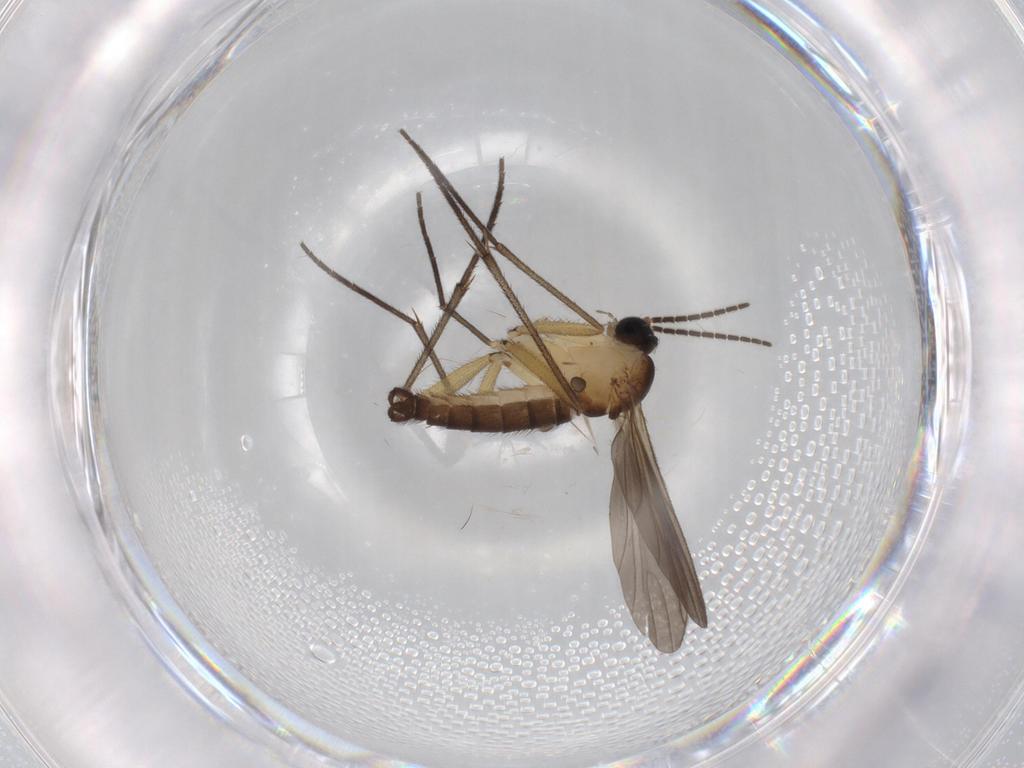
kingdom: Animalia
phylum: Arthropoda
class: Insecta
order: Diptera
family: Sciaridae
